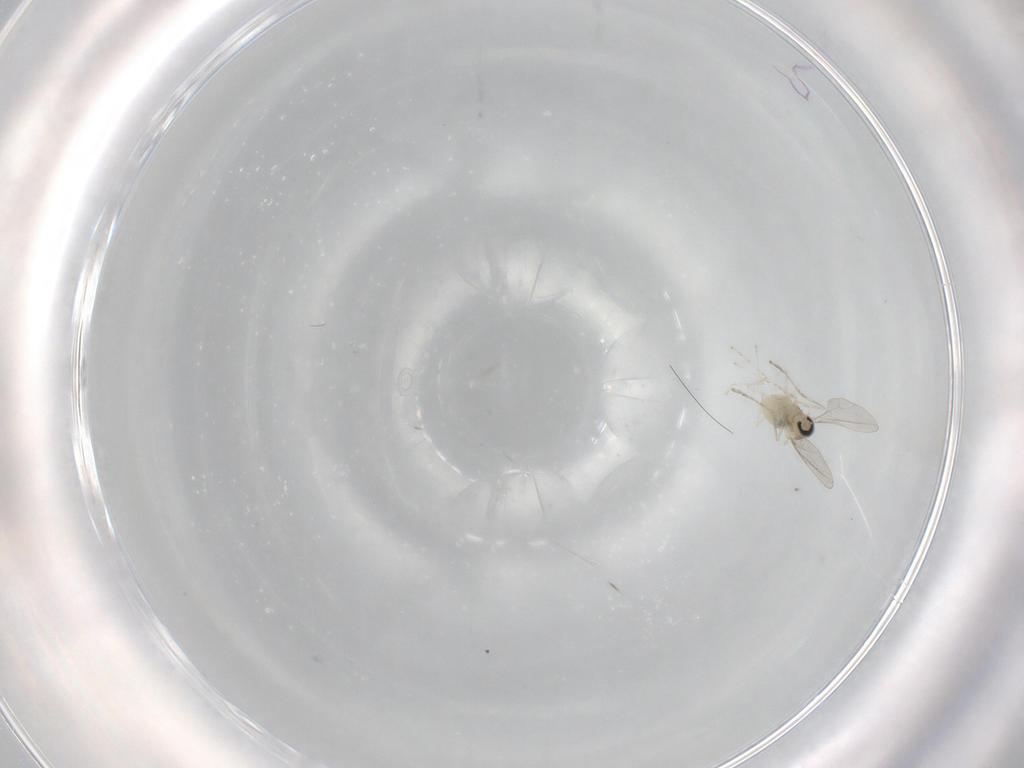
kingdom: Animalia
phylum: Arthropoda
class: Insecta
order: Diptera
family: Cecidomyiidae
